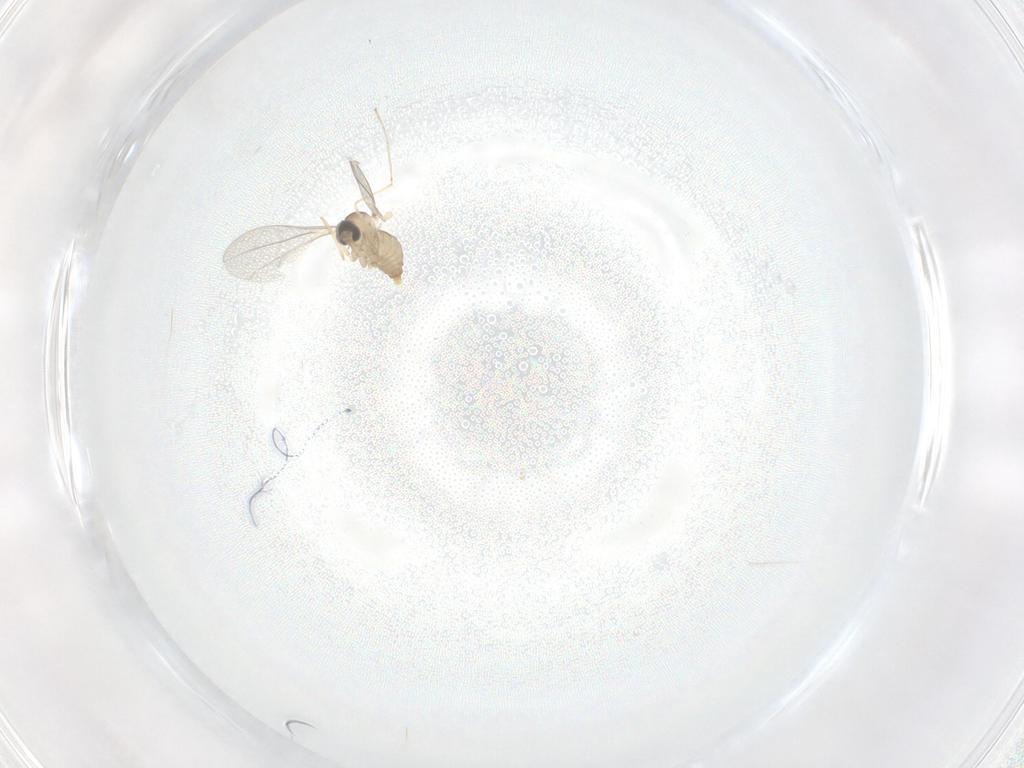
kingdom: Animalia
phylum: Arthropoda
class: Insecta
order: Diptera
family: Cecidomyiidae
